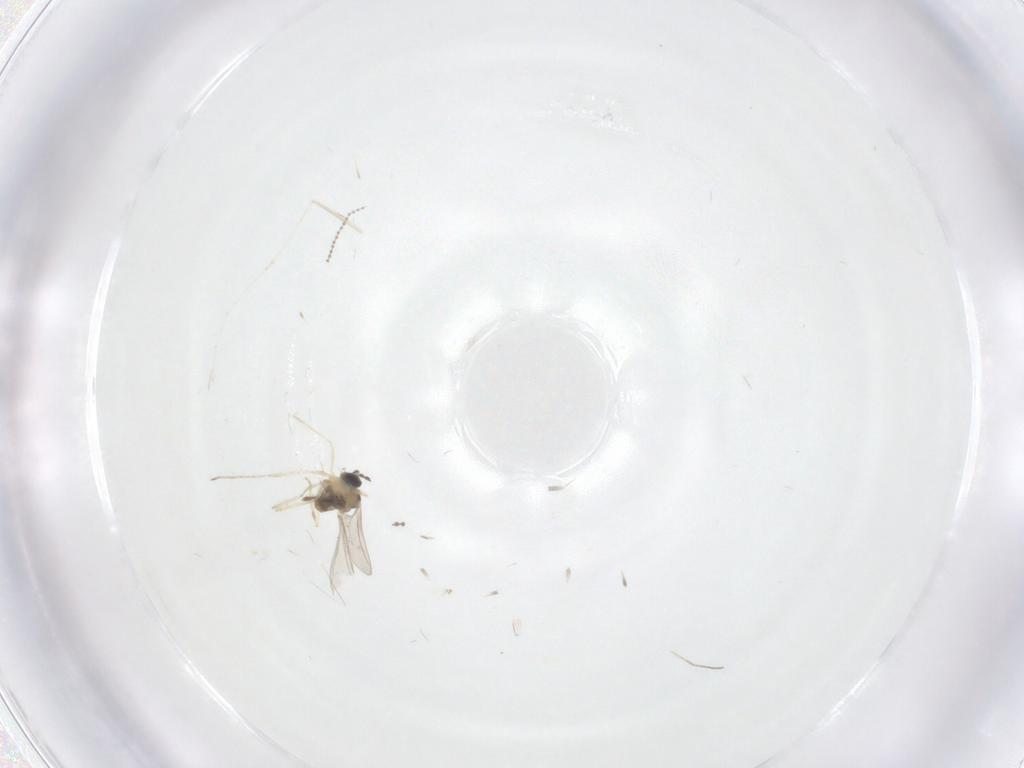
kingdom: Animalia
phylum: Arthropoda
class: Insecta
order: Diptera
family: Cecidomyiidae
